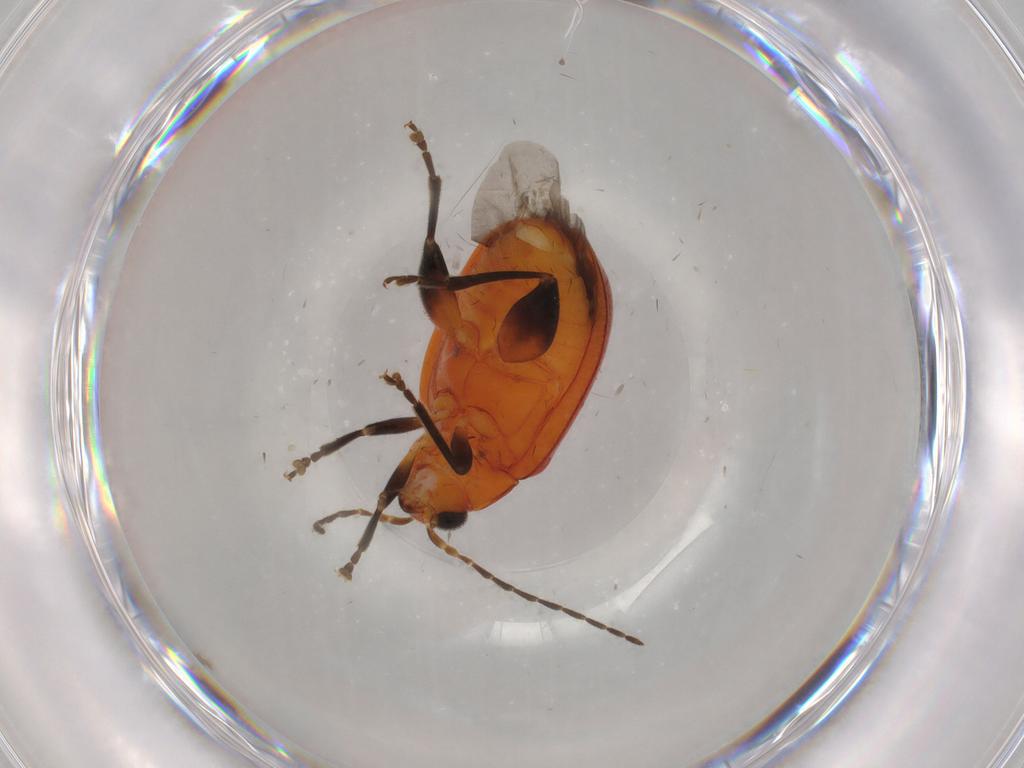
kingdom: Animalia
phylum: Arthropoda
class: Insecta
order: Coleoptera
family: Chrysomelidae
